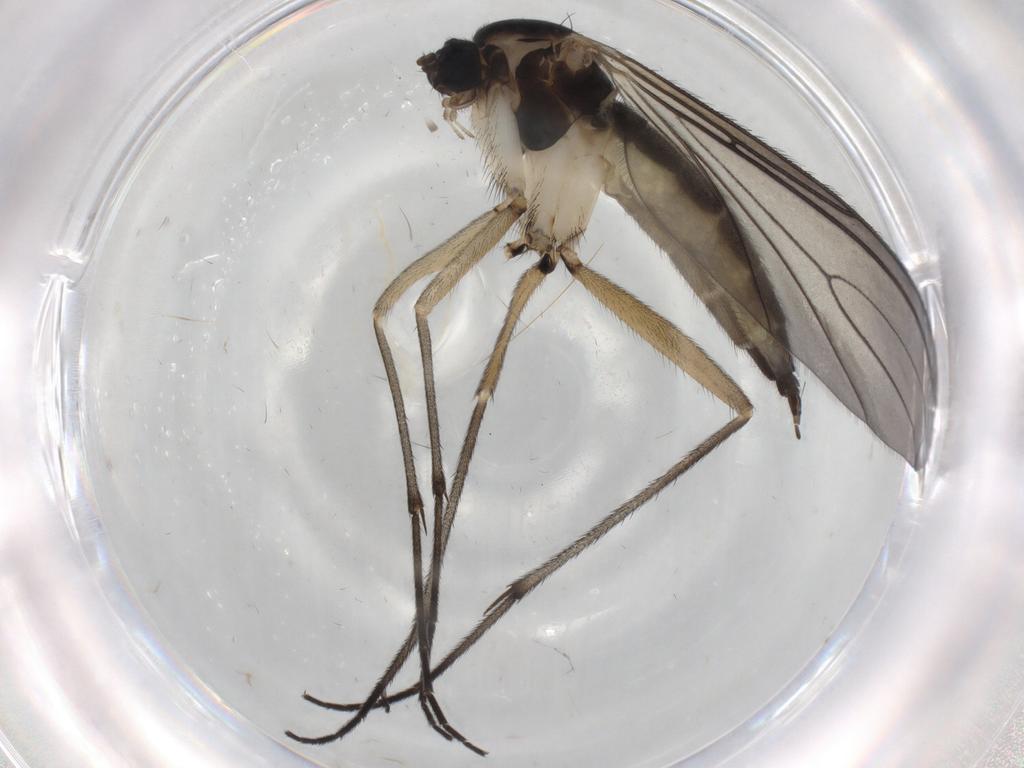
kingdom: Animalia
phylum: Arthropoda
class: Insecta
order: Diptera
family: Sciaridae
